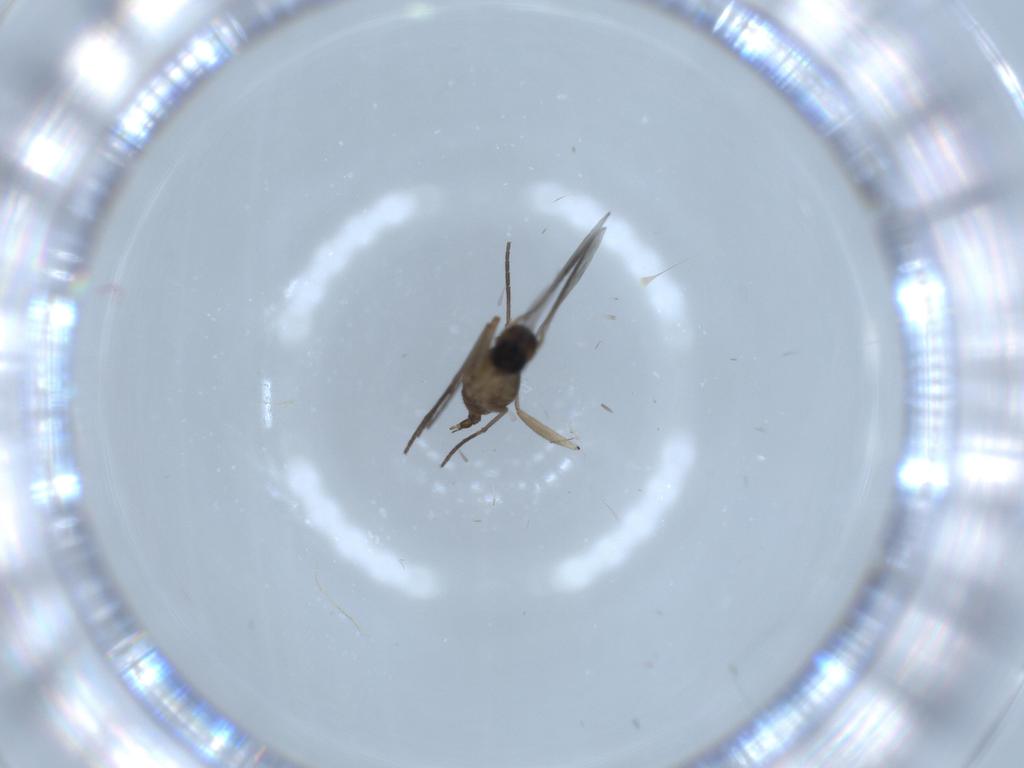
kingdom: Animalia
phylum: Arthropoda
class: Insecta
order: Diptera
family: Sciaridae
